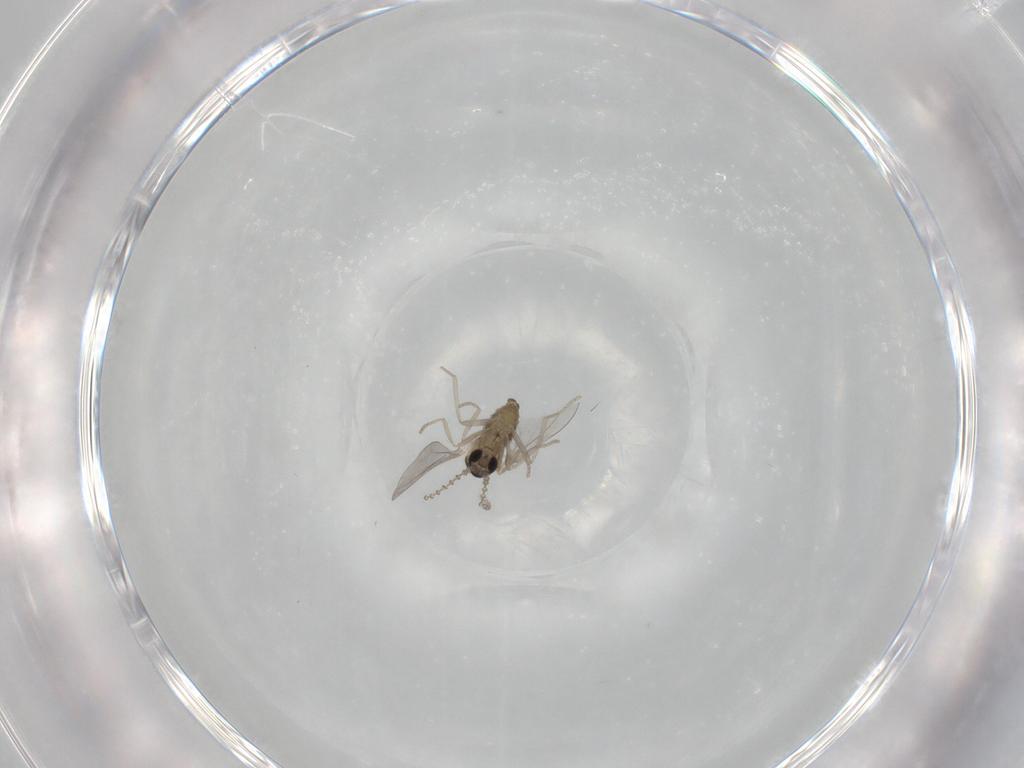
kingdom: Animalia
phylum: Arthropoda
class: Insecta
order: Diptera
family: Cecidomyiidae
